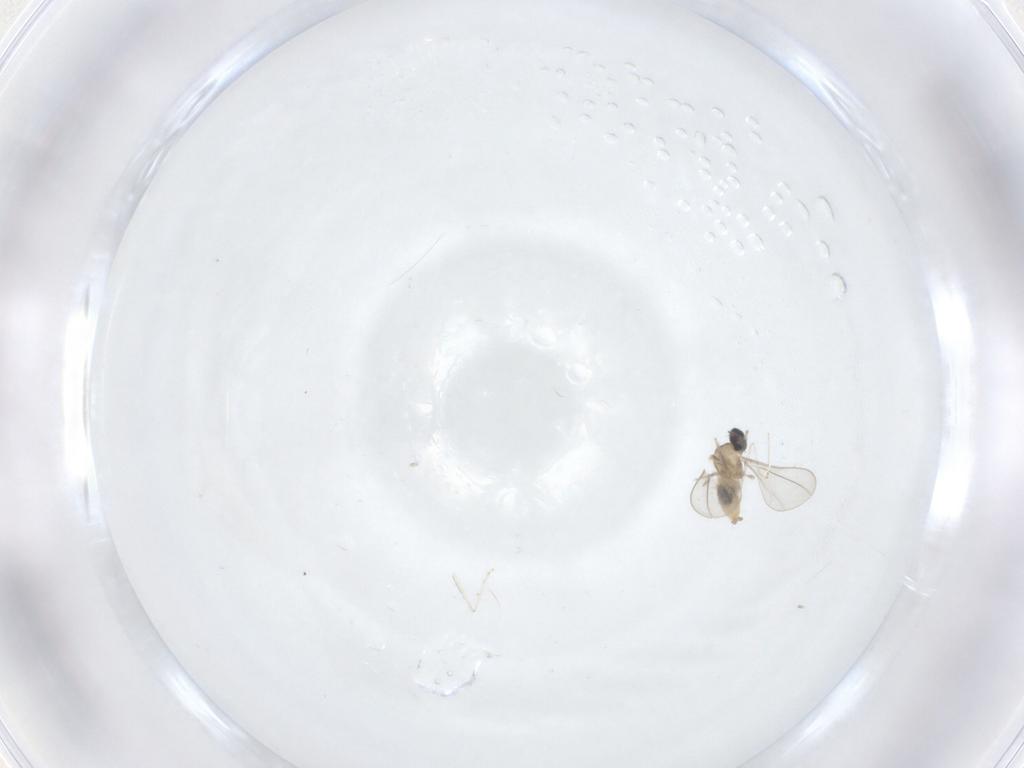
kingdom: Animalia
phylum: Arthropoda
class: Insecta
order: Diptera
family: Cecidomyiidae
